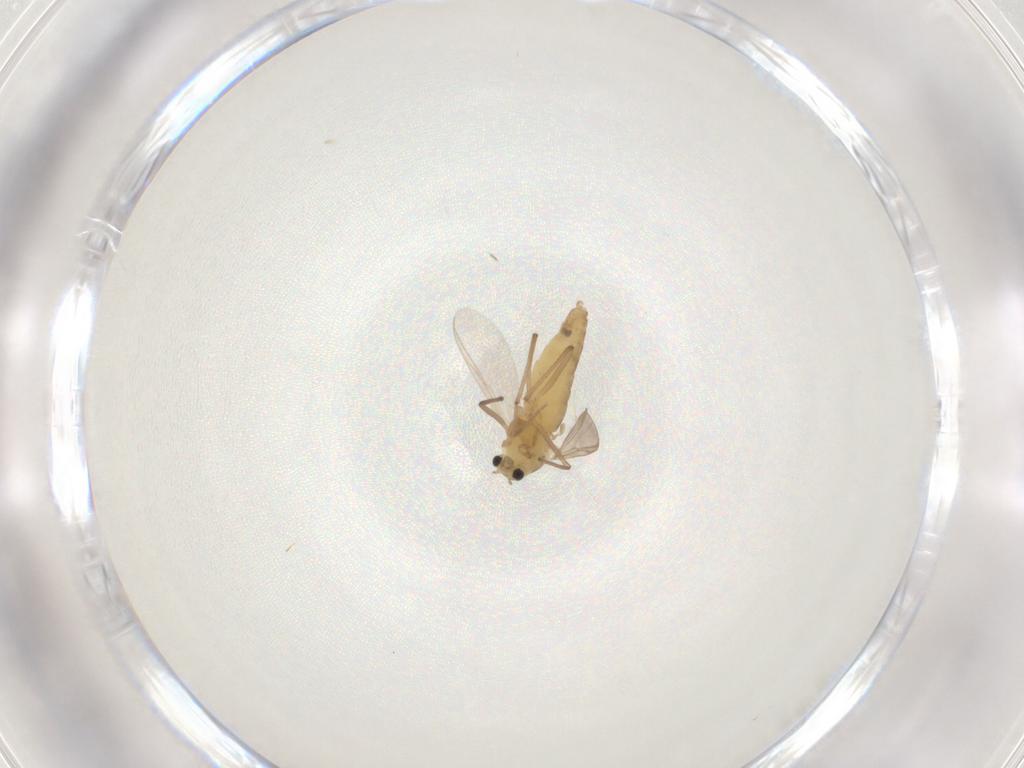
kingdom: Animalia
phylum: Arthropoda
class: Insecta
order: Diptera
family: Chironomidae
